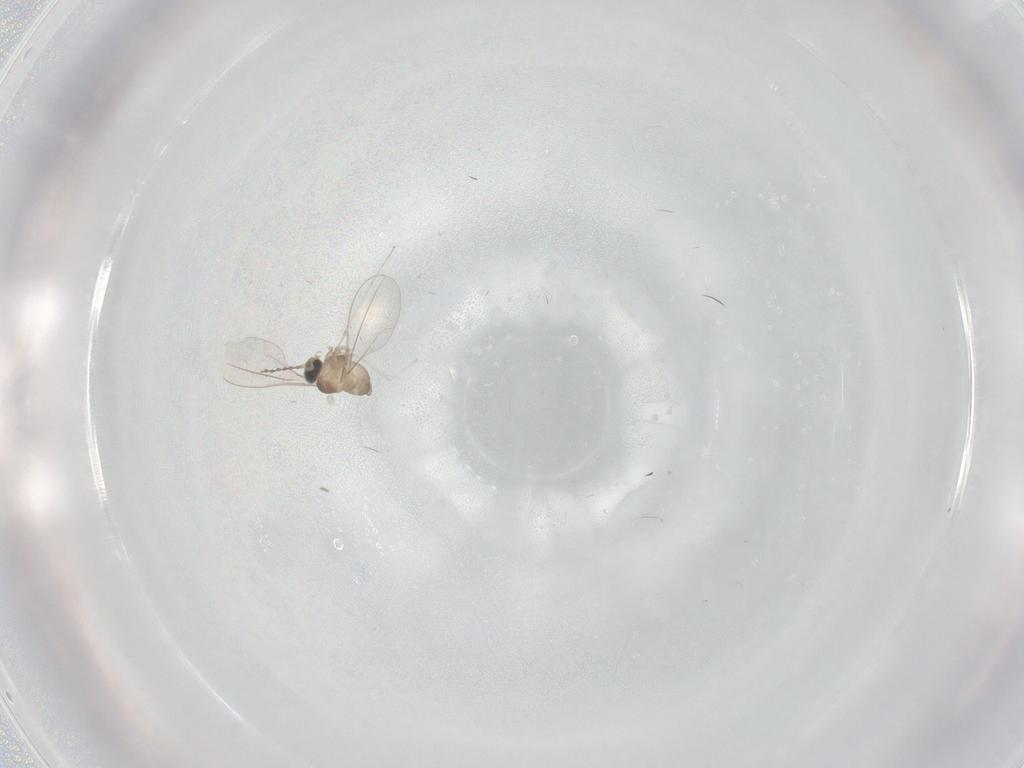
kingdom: Animalia
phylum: Arthropoda
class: Insecta
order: Diptera
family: Cecidomyiidae
